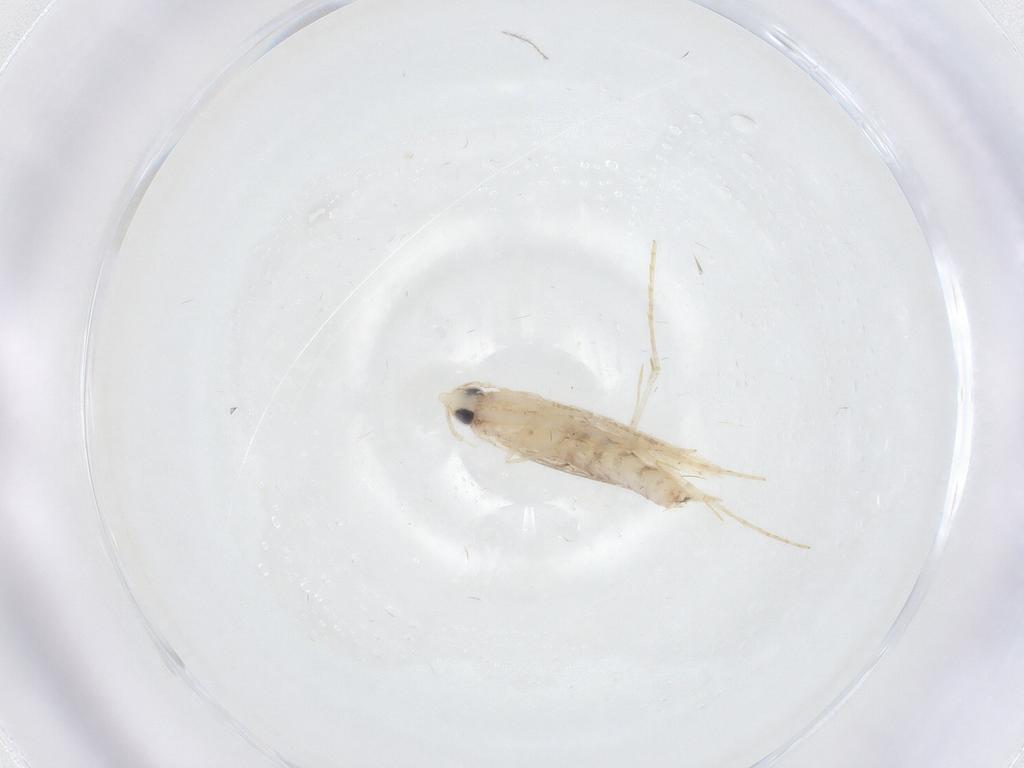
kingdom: Animalia
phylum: Arthropoda
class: Insecta
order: Lepidoptera
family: Tineidae
